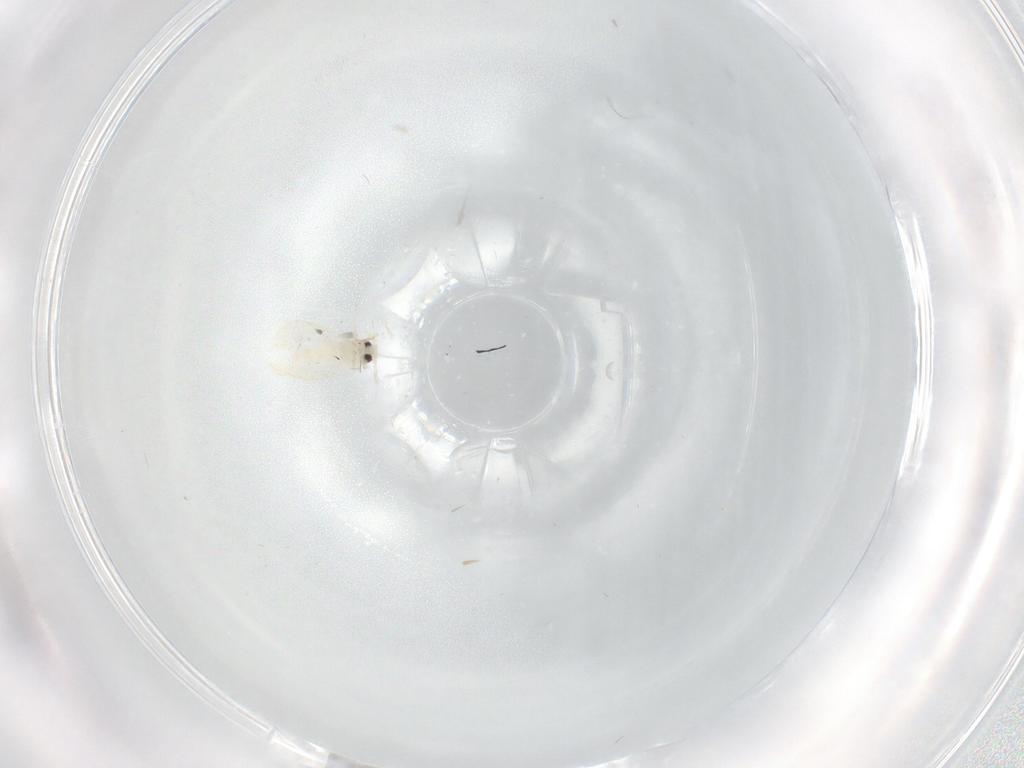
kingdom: Animalia
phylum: Arthropoda
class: Insecta
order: Hemiptera
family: Aleyrodidae
